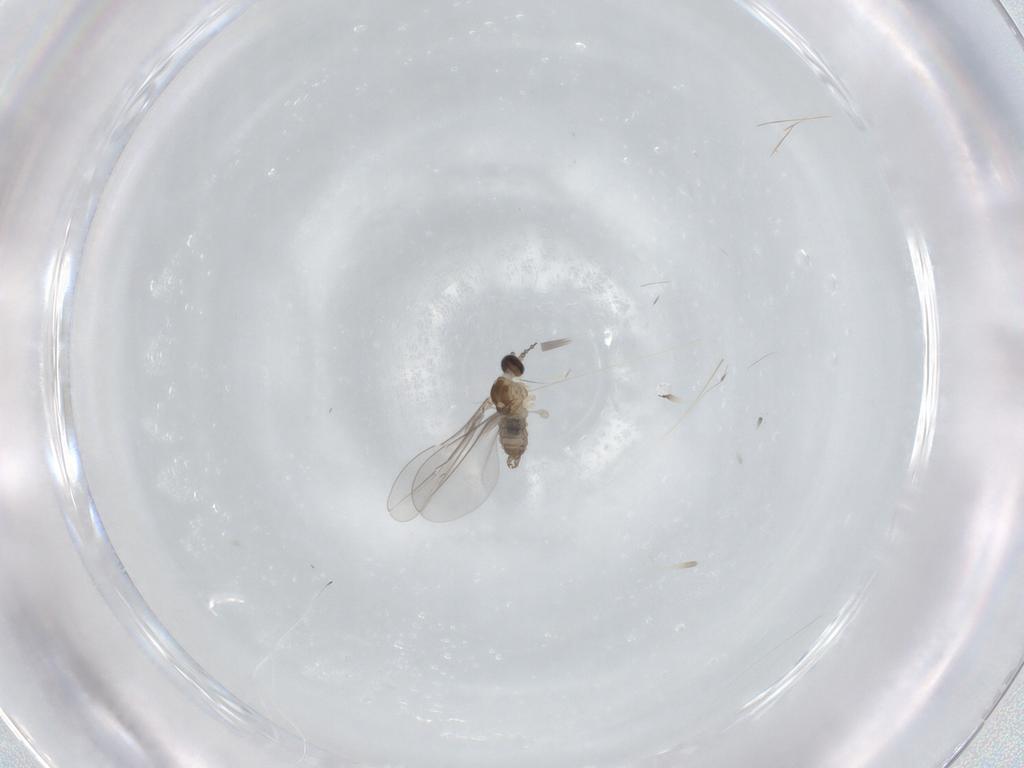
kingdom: Animalia
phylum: Arthropoda
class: Insecta
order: Diptera
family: Cecidomyiidae
